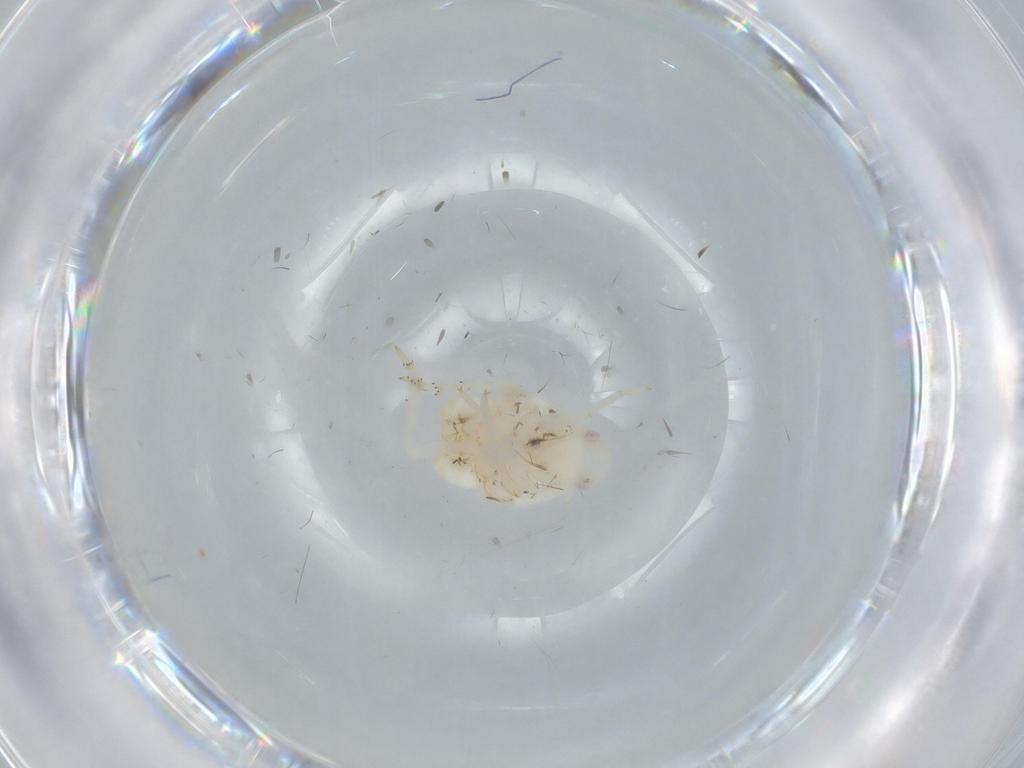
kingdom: Animalia
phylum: Arthropoda
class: Insecta
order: Hemiptera
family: Flatidae
